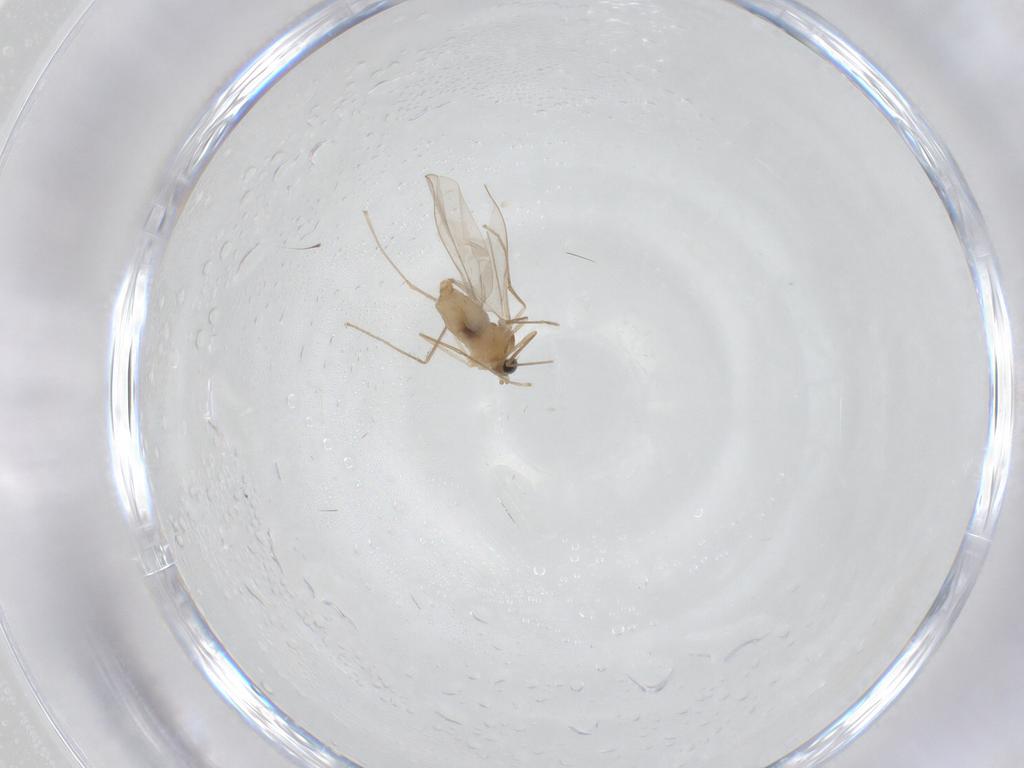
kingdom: Animalia
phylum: Arthropoda
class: Insecta
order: Diptera
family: Cecidomyiidae
